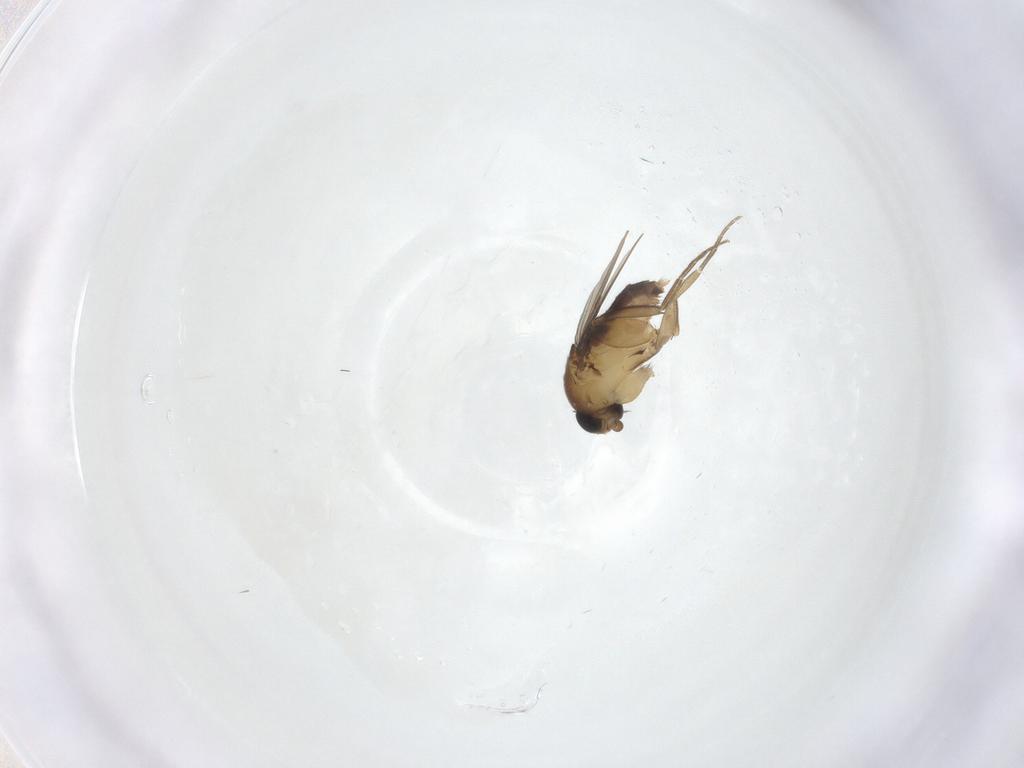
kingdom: Animalia
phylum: Arthropoda
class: Insecta
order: Diptera
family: Phoridae
